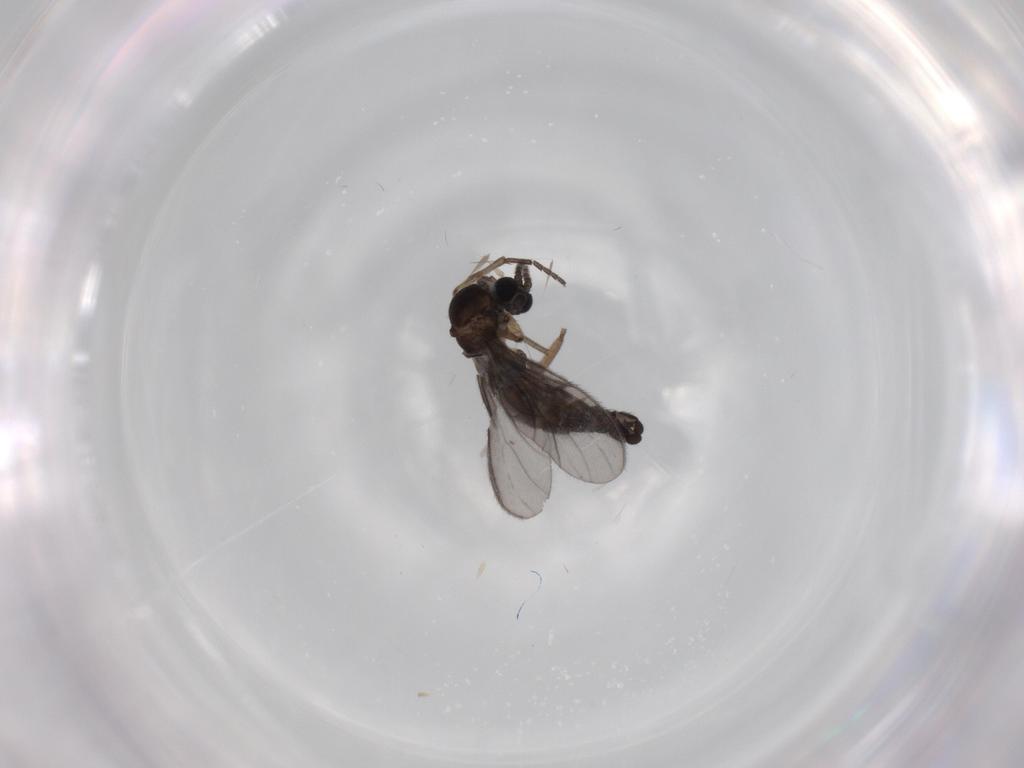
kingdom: Animalia
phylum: Arthropoda
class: Insecta
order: Diptera
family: Sciaridae
